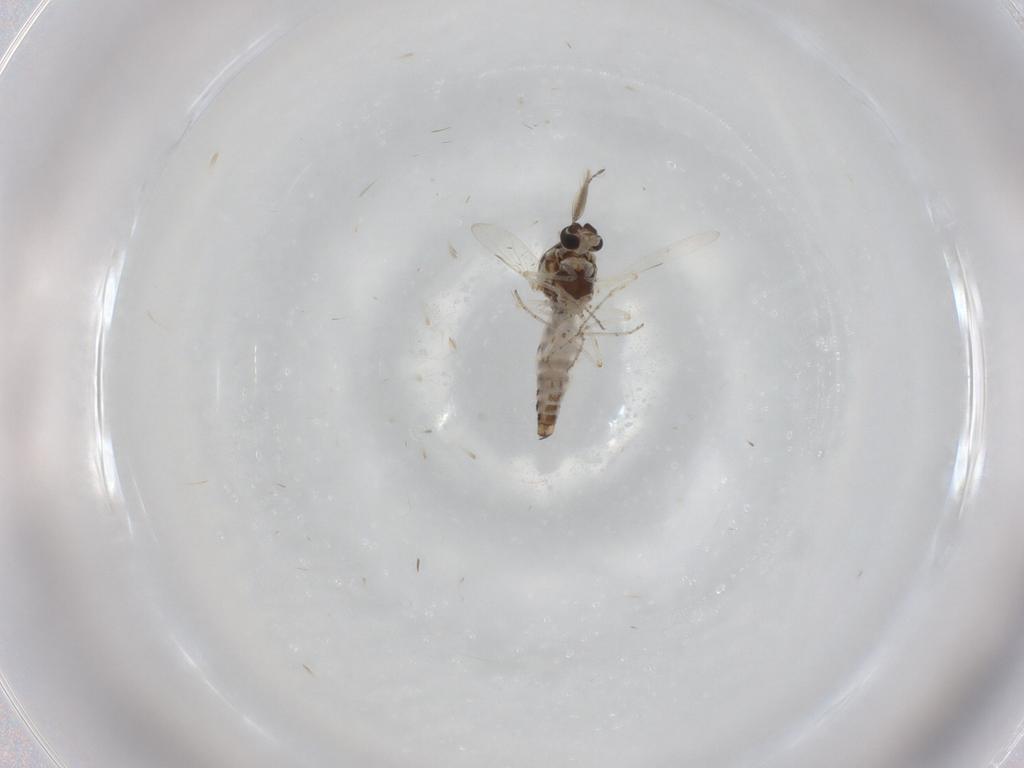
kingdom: Animalia
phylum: Arthropoda
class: Insecta
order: Diptera
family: Ceratopogonidae
